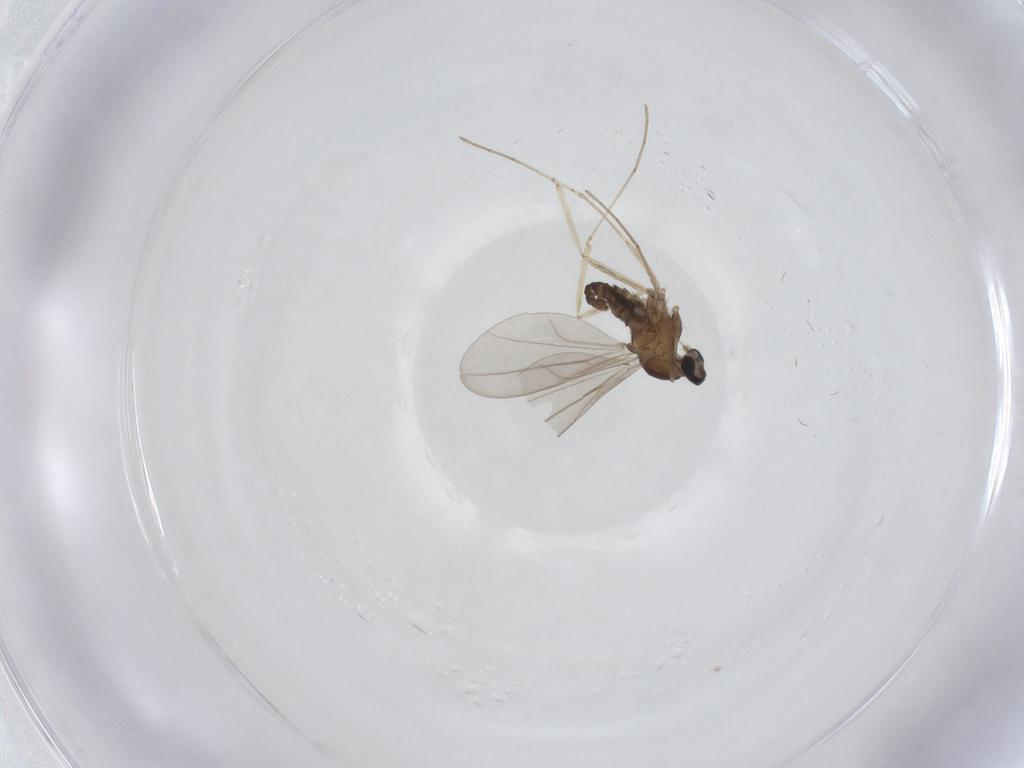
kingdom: Animalia
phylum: Arthropoda
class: Insecta
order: Diptera
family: Cecidomyiidae
